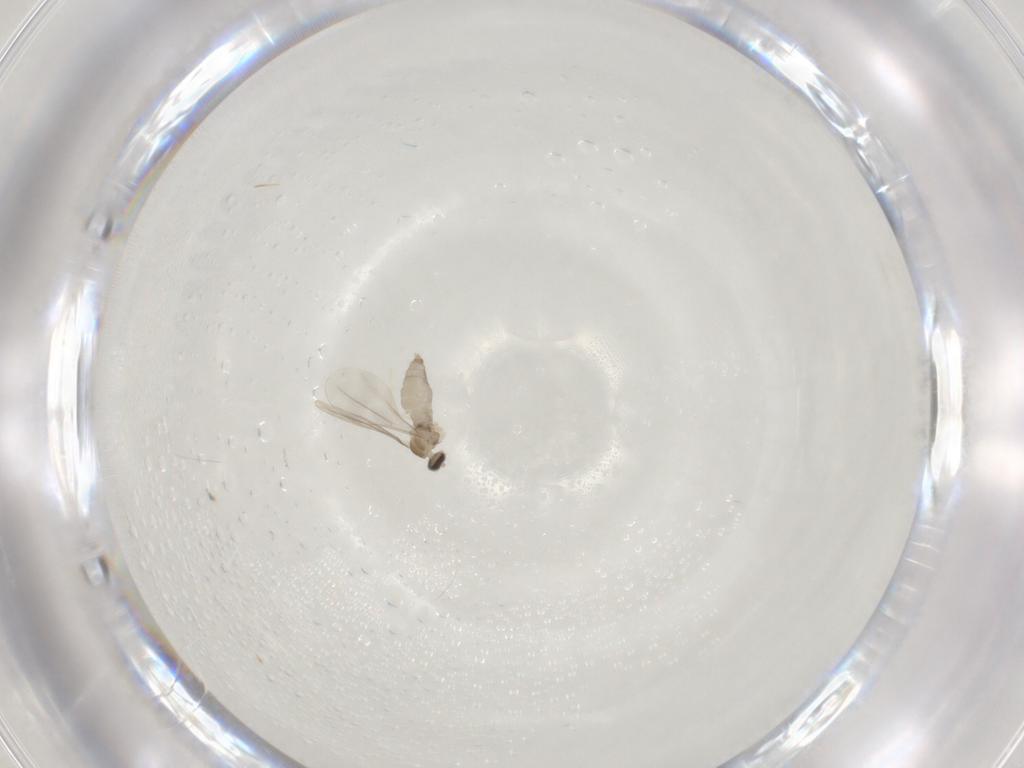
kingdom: Animalia
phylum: Arthropoda
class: Insecta
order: Diptera
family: Cecidomyiidae
